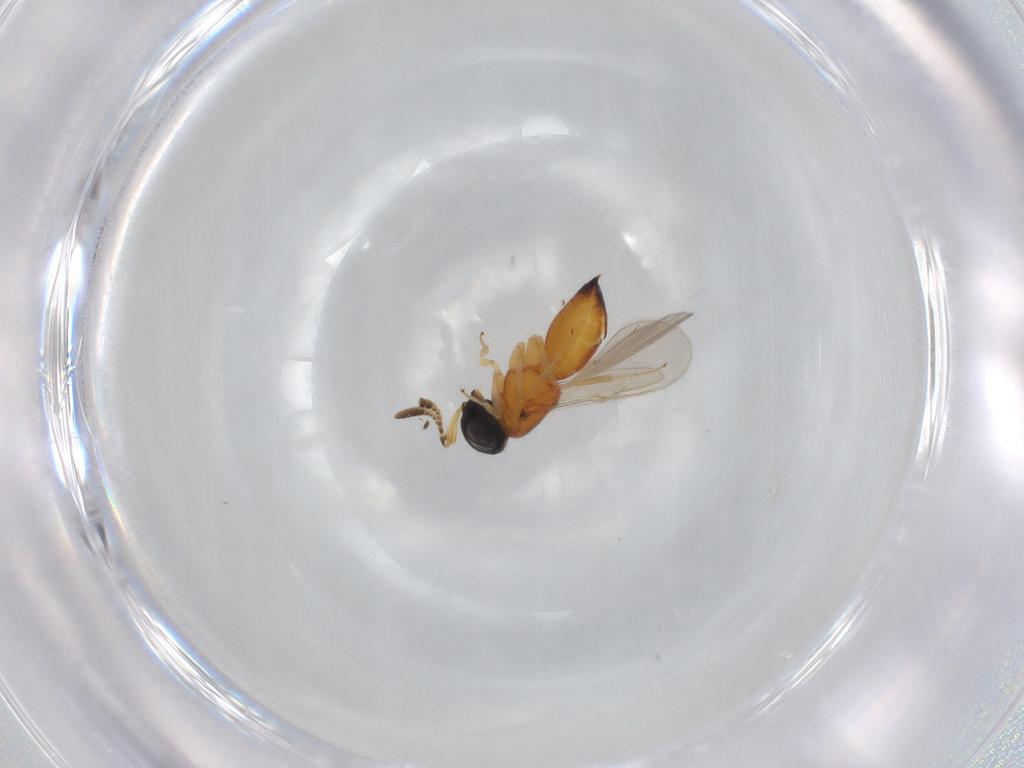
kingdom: Animalia
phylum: Arthropoda
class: Insecta
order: Hymenoptera
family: Scelionidae
